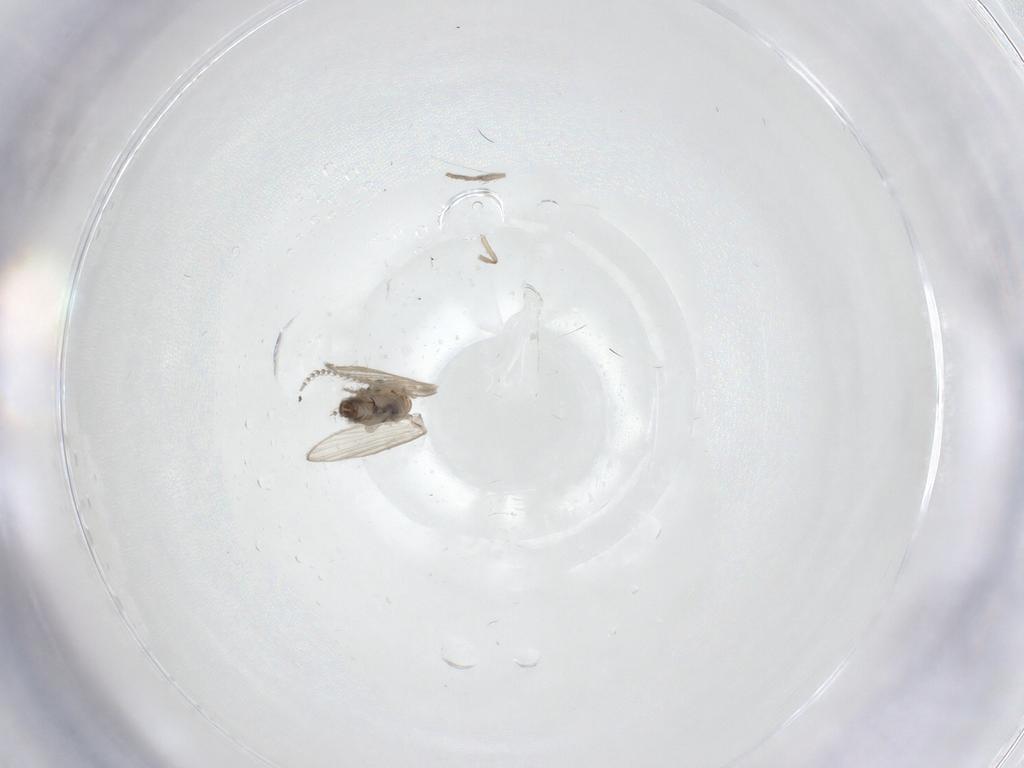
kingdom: Animalia
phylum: Arthropoda
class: Insecta
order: Diptera
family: Psychodidae
